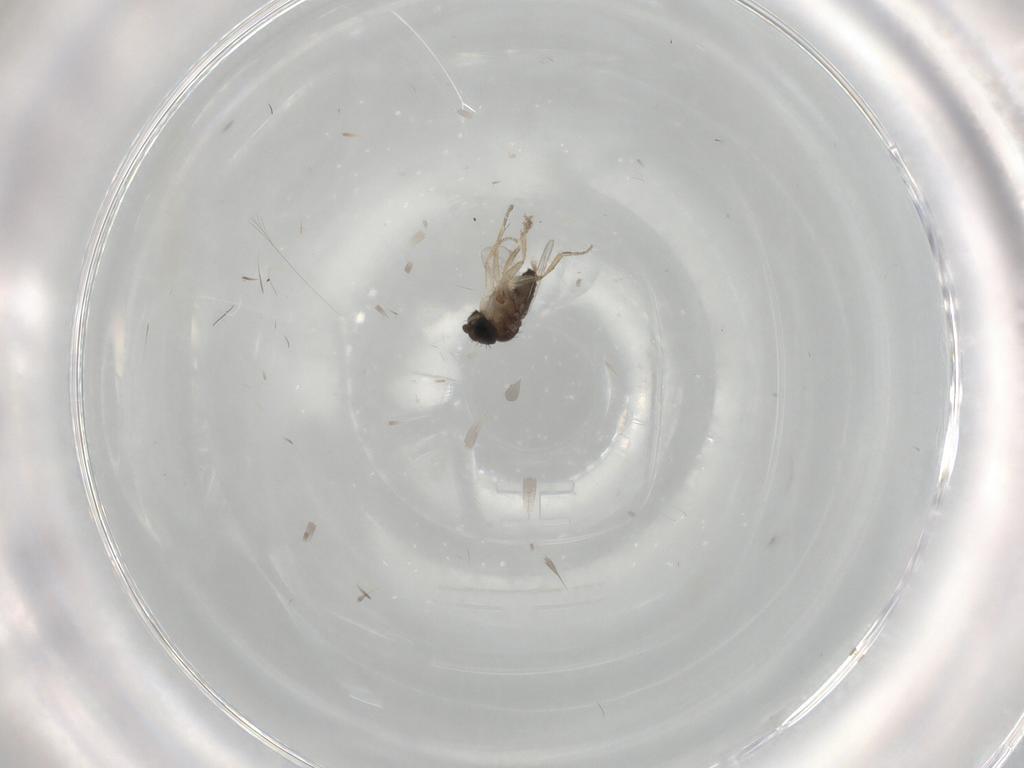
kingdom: Animalia
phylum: Arthropoda
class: Insecta
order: Diptera
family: Phoridae
